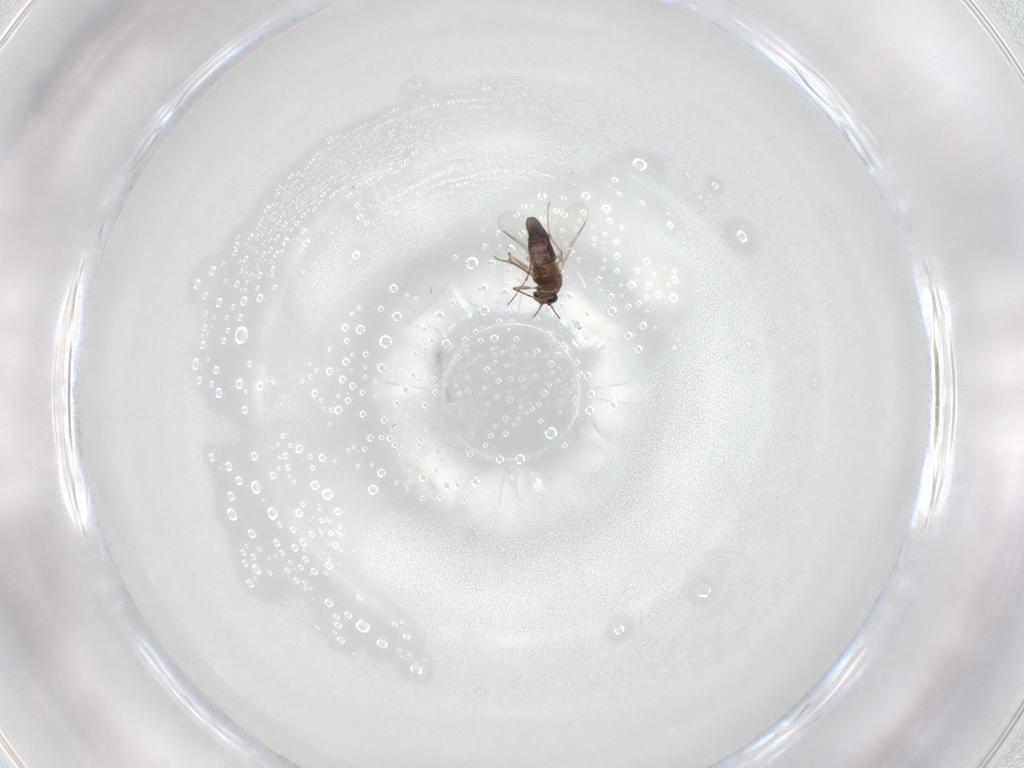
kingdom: Animalia
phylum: Arthropoda
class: Insecta
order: Diptera
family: Chironomidae
